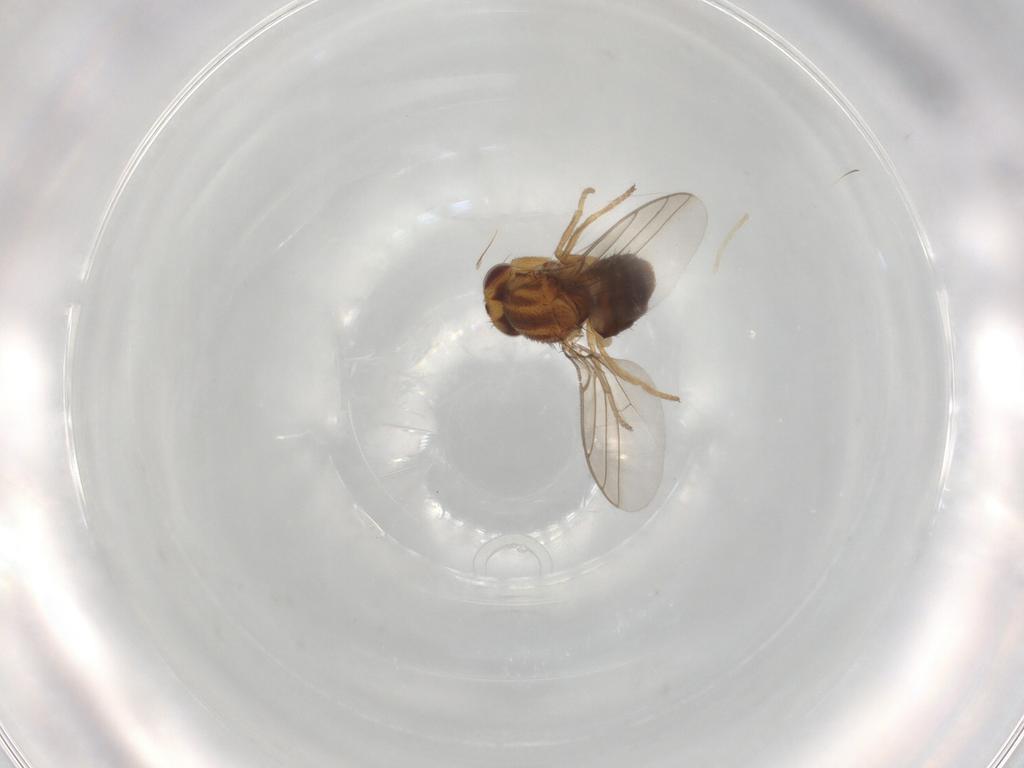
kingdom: Animalia
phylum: Arthropoda
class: Insecta
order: Diptera
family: Chloropidae
